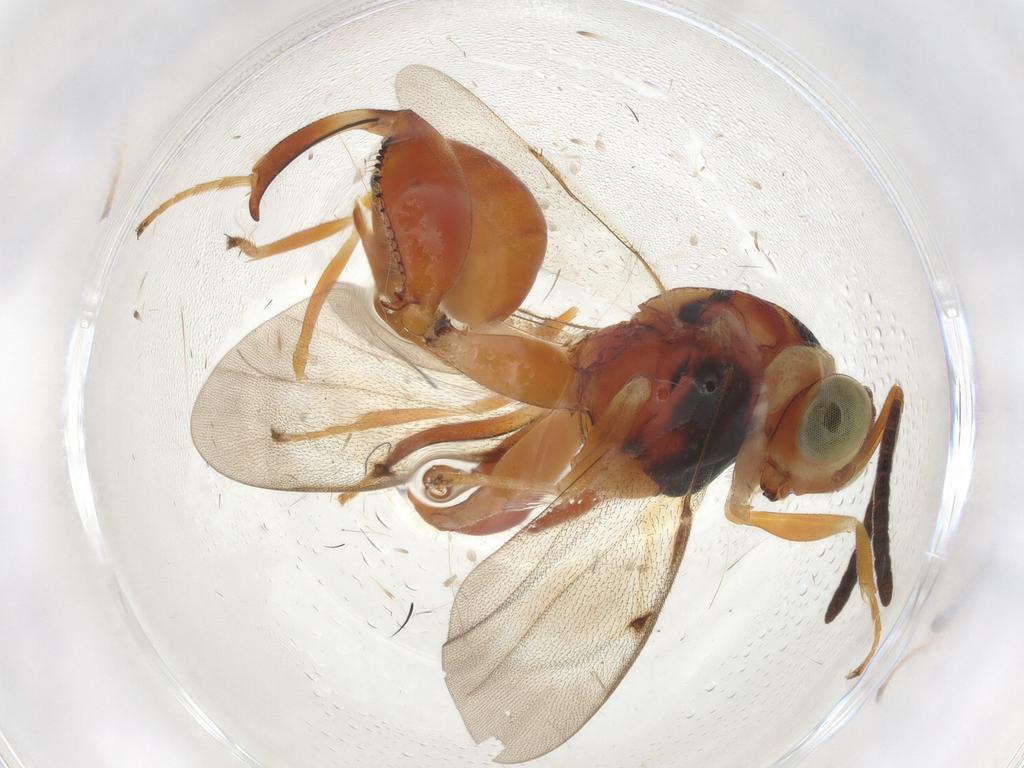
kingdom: Animalia
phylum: Arthropoda
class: Insecta
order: Hymenoptera
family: Chalcididae
